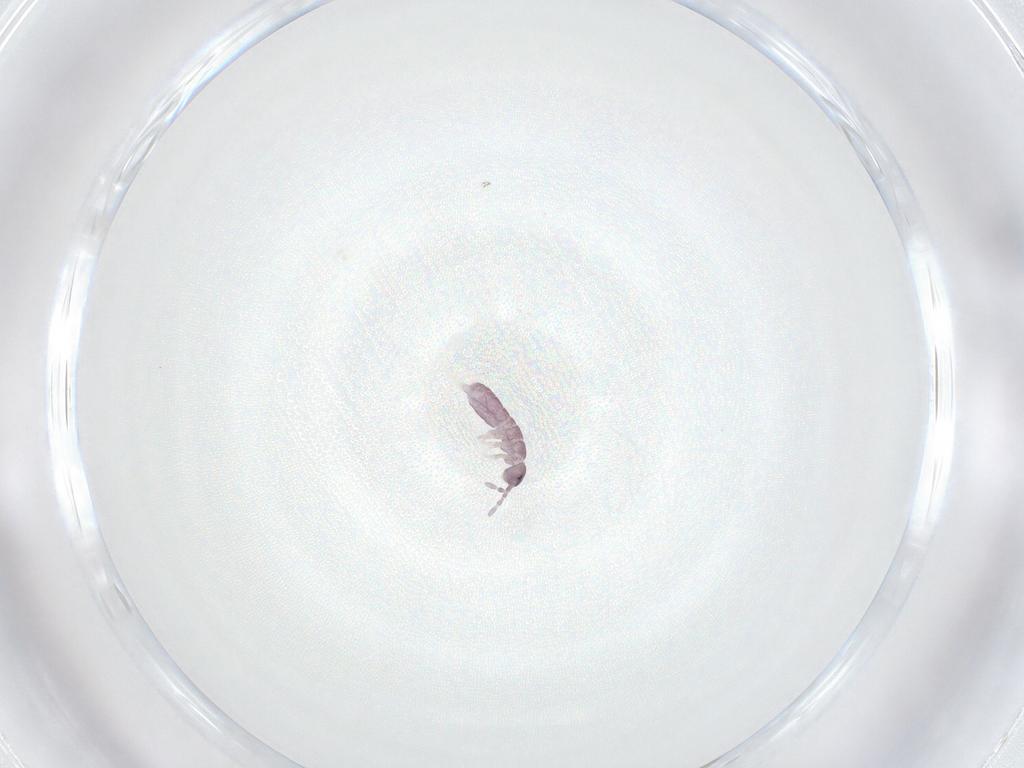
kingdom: Animalia
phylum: Arthropoda
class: Collembola
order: Entomobryomorpha
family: Isotomidae
